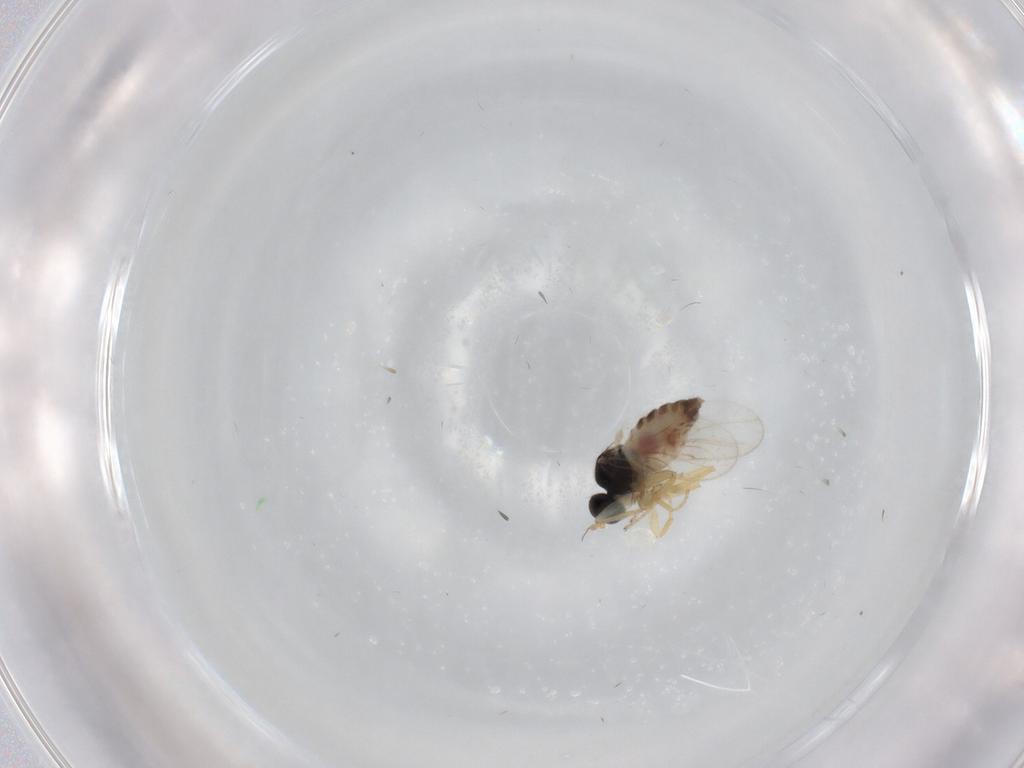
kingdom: Animalia
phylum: Arthropoda
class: Insecta
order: Diptera
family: Hybotidae
